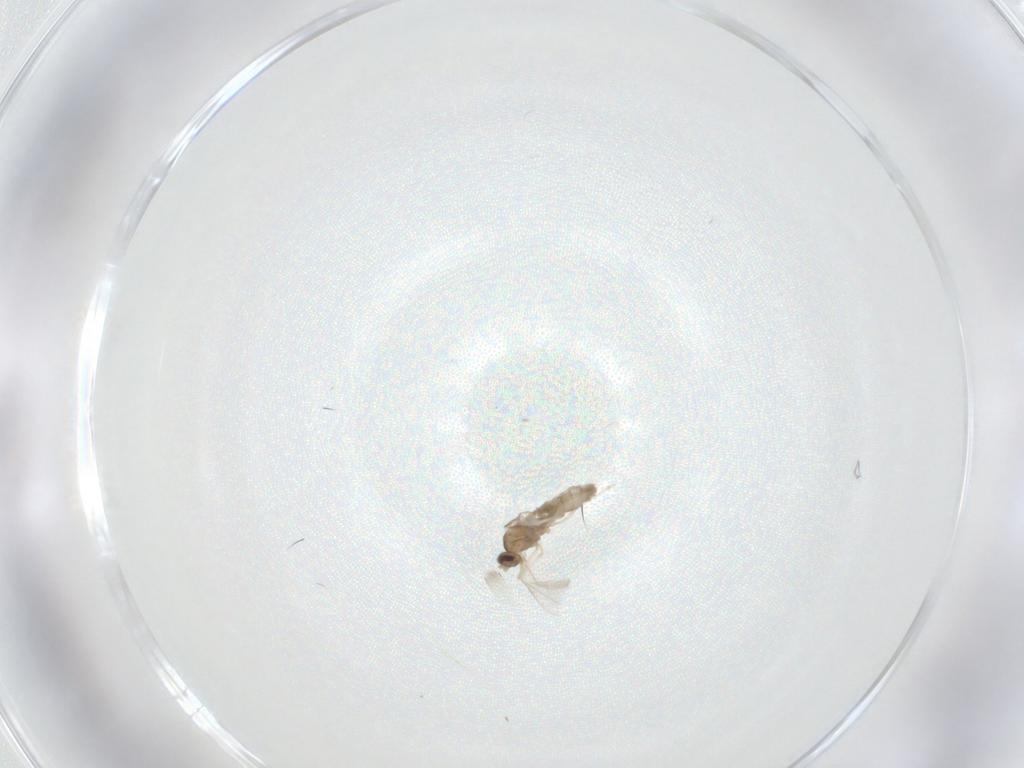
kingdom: Animalia
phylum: Arthropoda
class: Insecta
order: Diptera
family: Cecidomyiidae
